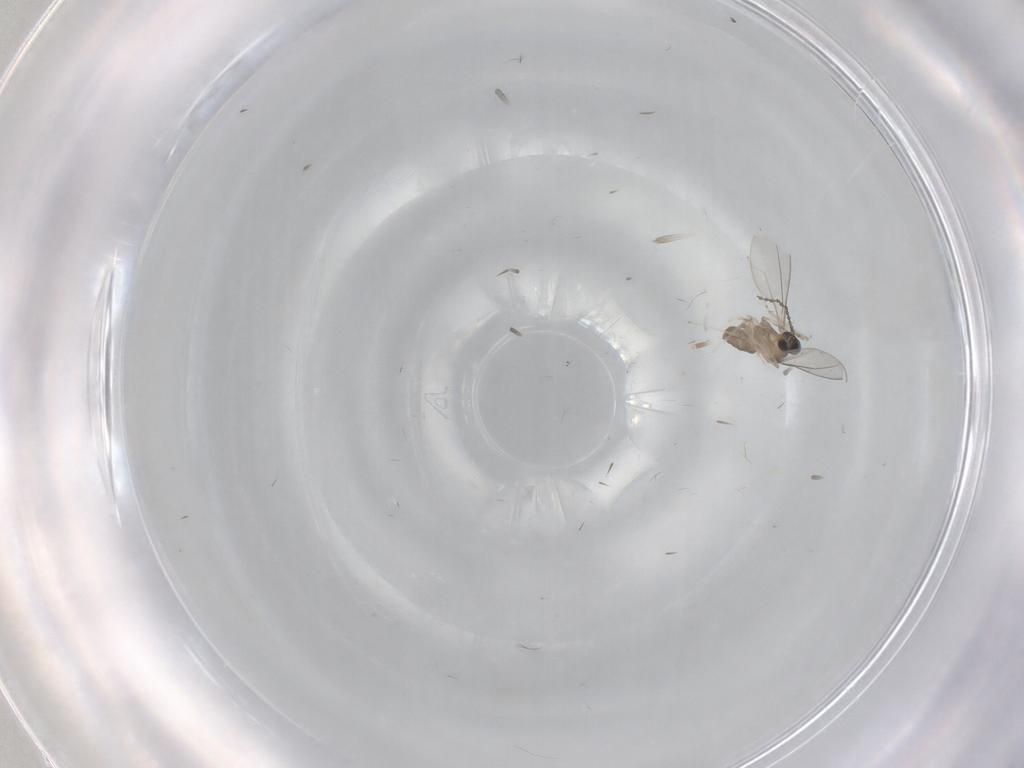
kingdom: Animalia
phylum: Arthropoda
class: Insecta
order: Diptera
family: Cecidomyiidae
